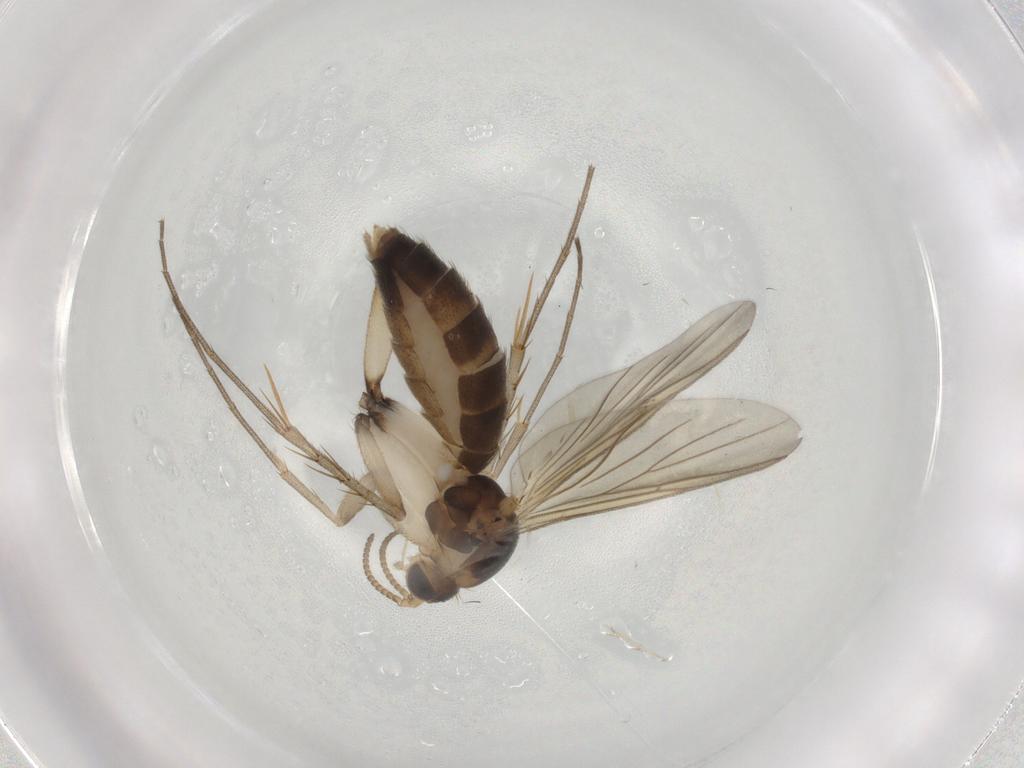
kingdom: Animalia
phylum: Arthropoda
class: Insecta
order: Diptera
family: Mycetophilidae
